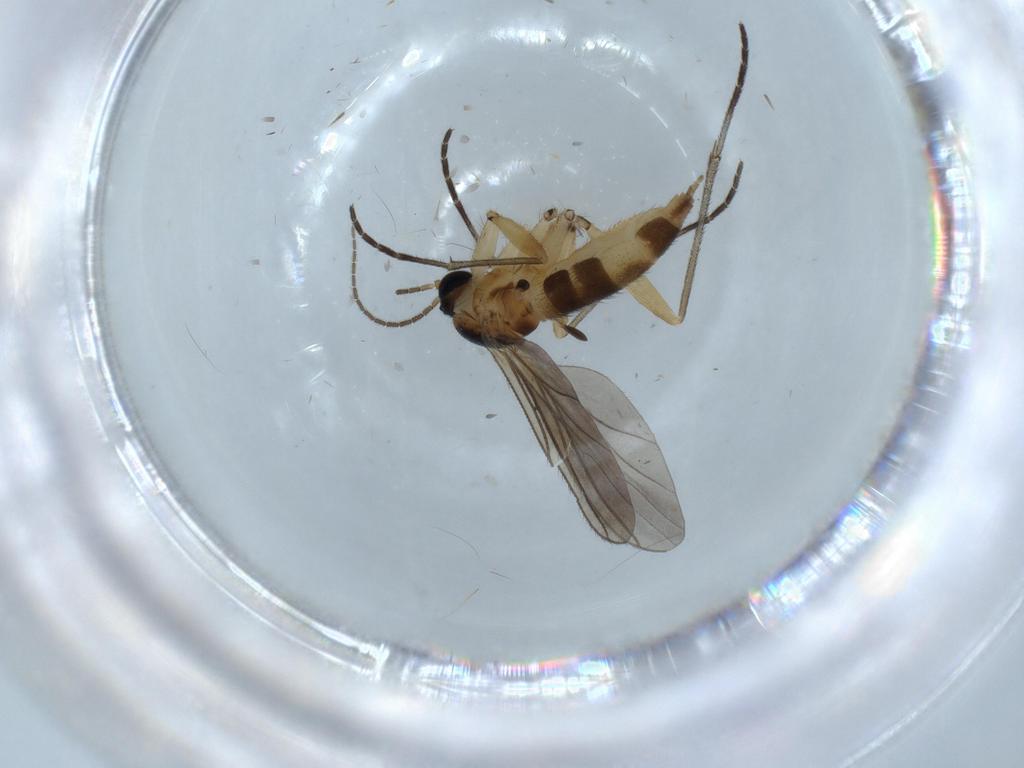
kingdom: Animalia
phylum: Arthropoda
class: Insecta
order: Diptera
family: Sciaridae
